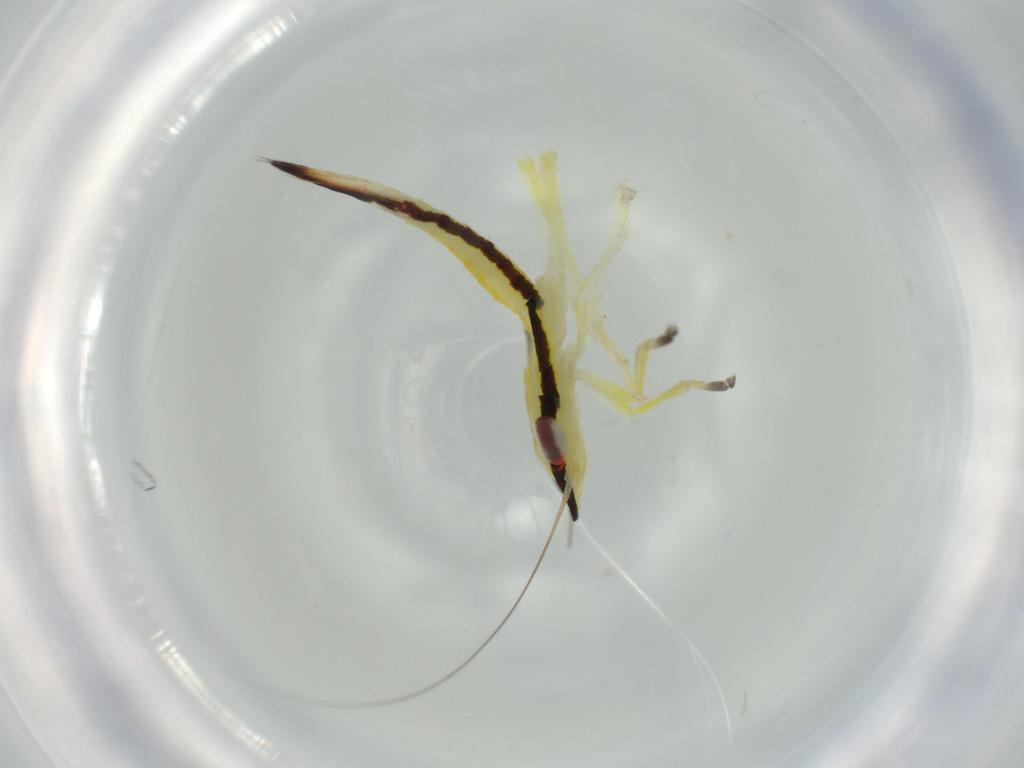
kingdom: Animalia
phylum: Arthropoda
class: Insecta
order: Hemiptera
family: Cicadellidae
